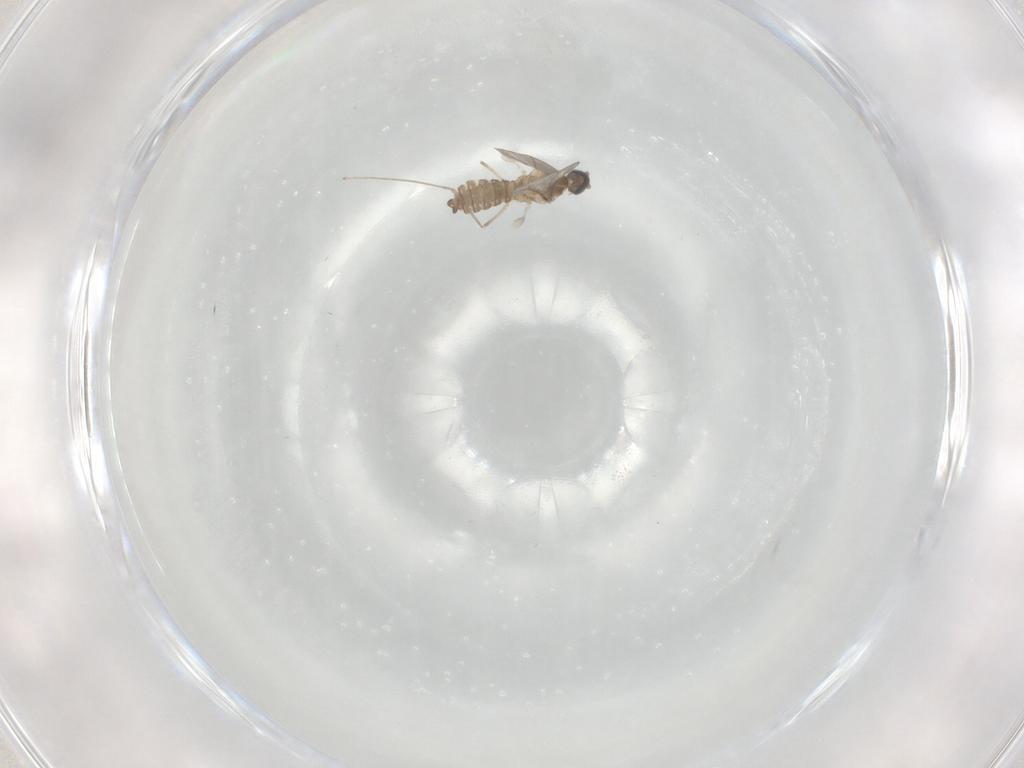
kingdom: Animalia
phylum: Arthropoda
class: Insecta
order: Diptera
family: Cecidomyiidae
